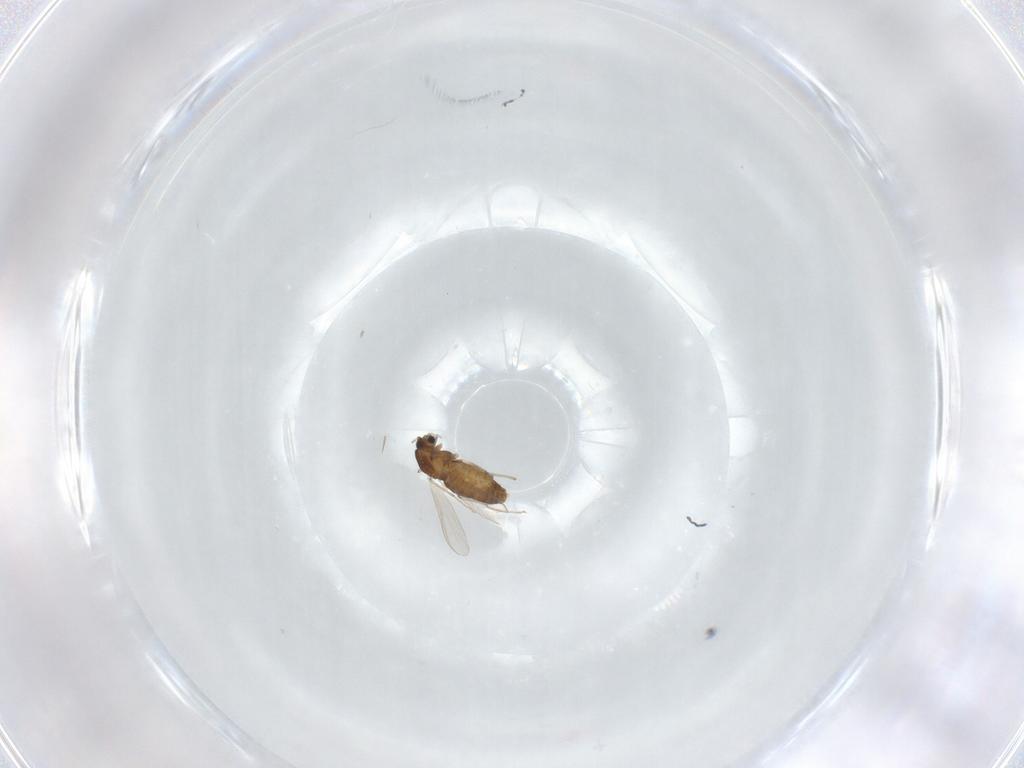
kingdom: Animalia
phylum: Arthropoda
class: Insecta
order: Diptera
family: Chironomidae
